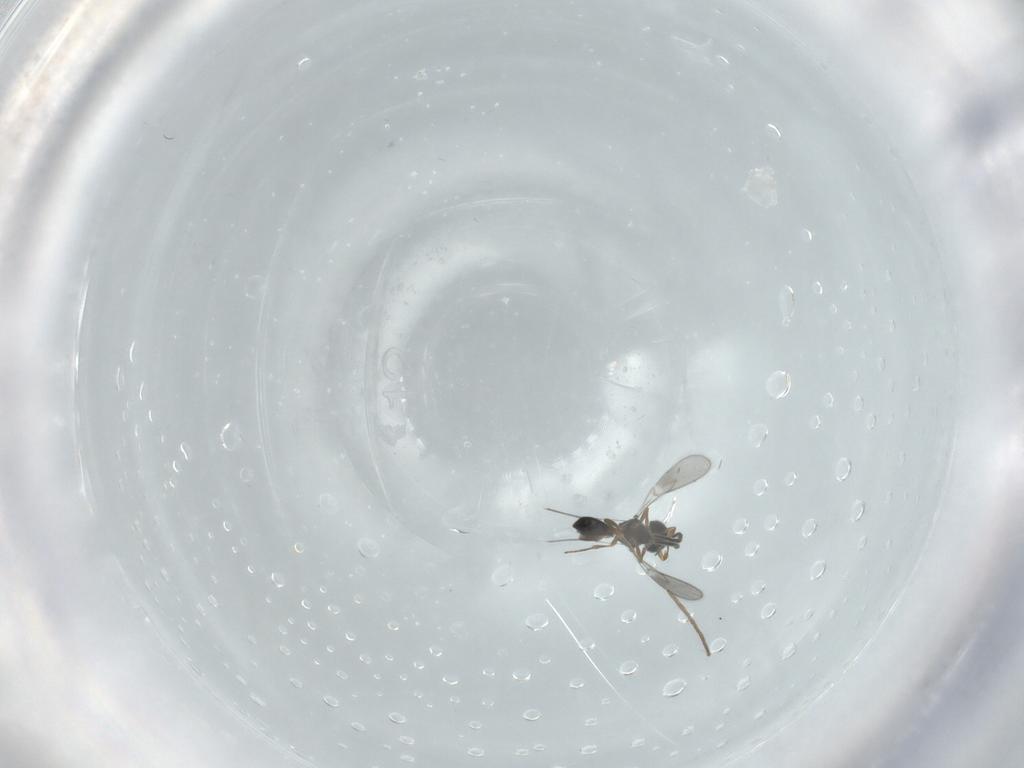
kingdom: Animalia
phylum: Arthropoda
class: Insecta
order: Hymenoptera
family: Scelionidae
